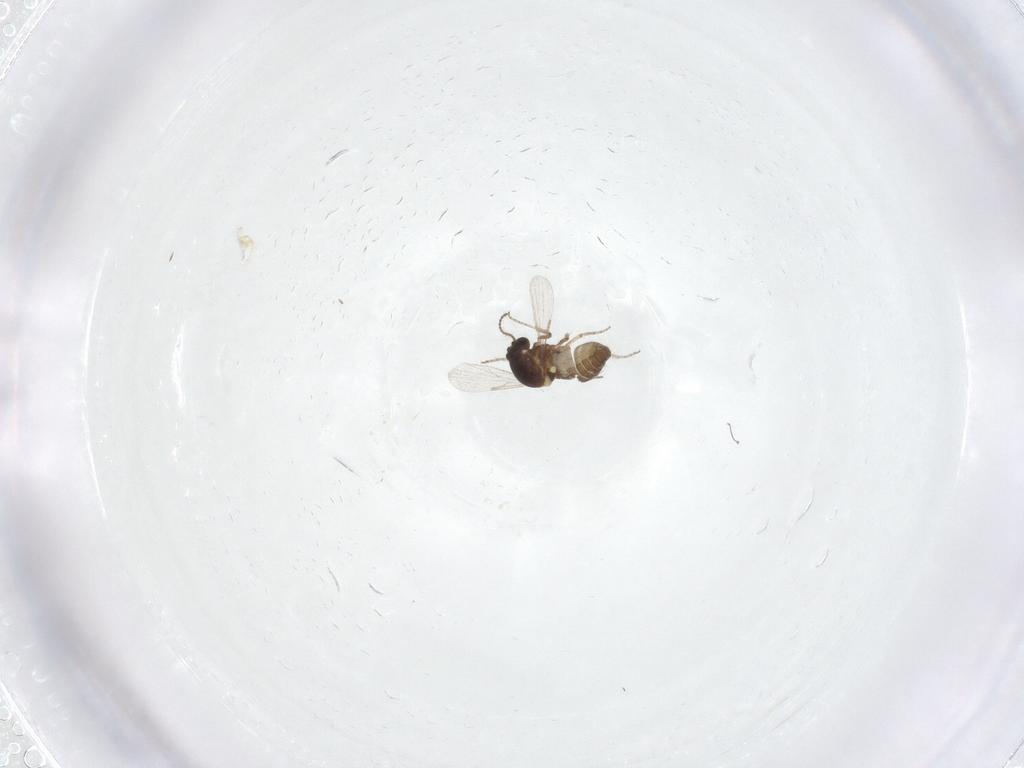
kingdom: Animalia
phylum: Arthropoda
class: Insecta
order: Diptera
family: Ceratopogonidae
